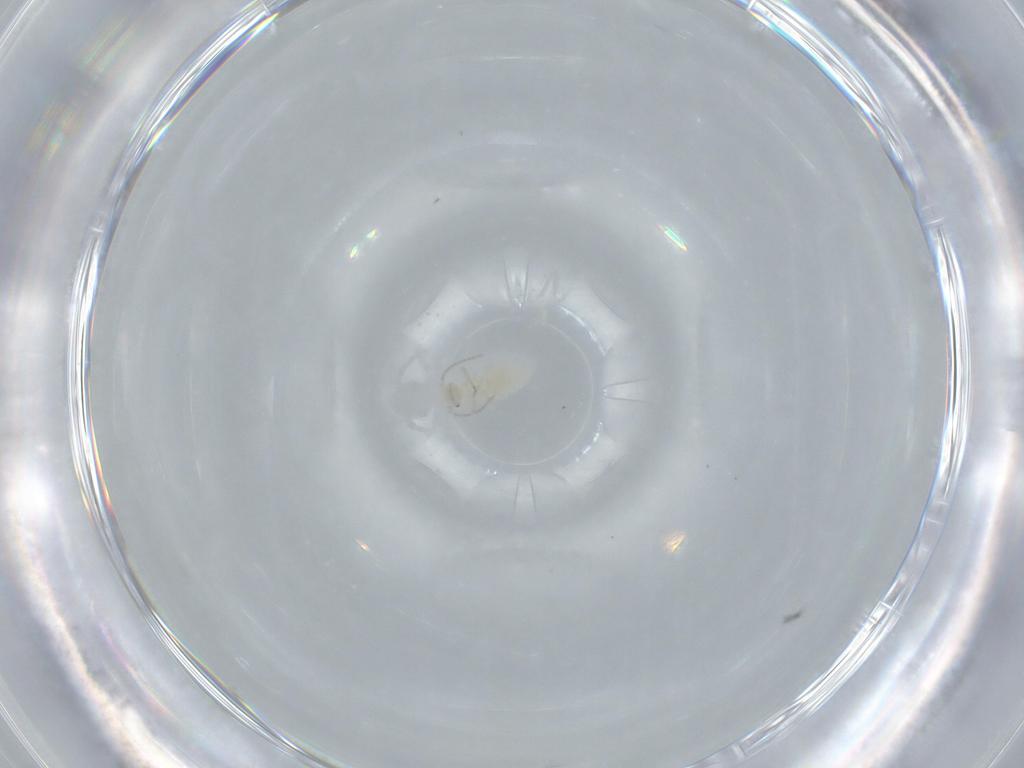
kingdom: Animalia
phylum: Arthropoda
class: Insecta
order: Psocodea
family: Caeciliusidae
